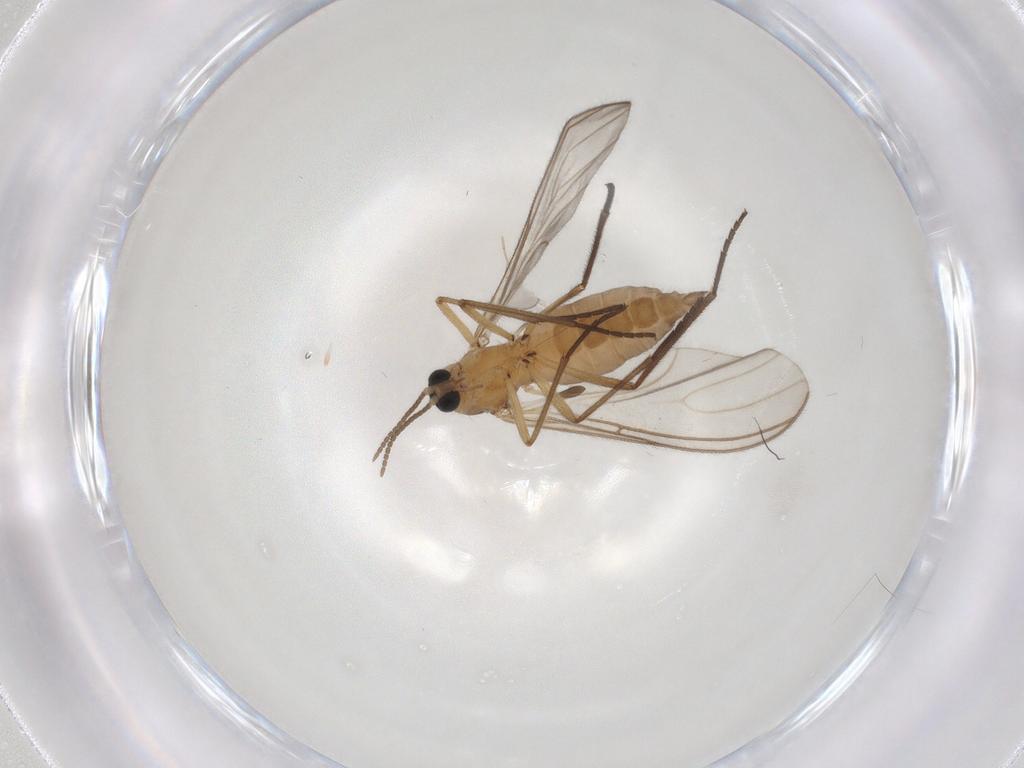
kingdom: Animalia
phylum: Arthropoda
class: Insecta
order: Diptera
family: Sciaridae
